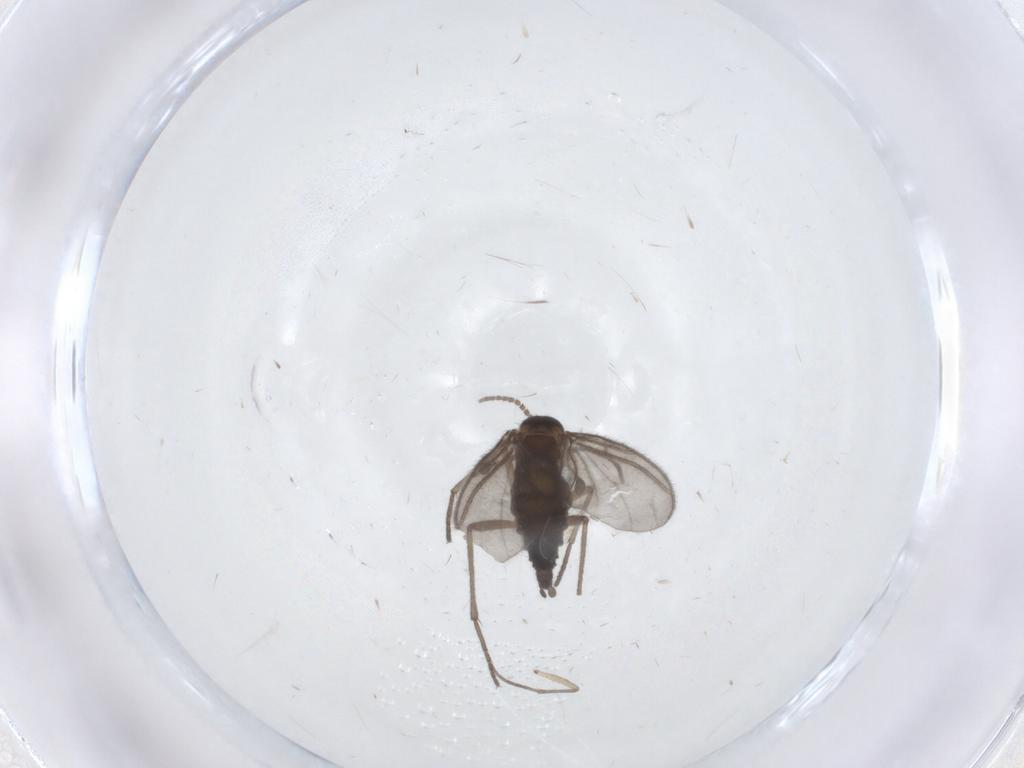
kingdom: Animalia
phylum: Arthropoda
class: Insecta
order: Diptera
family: Sciaridae
